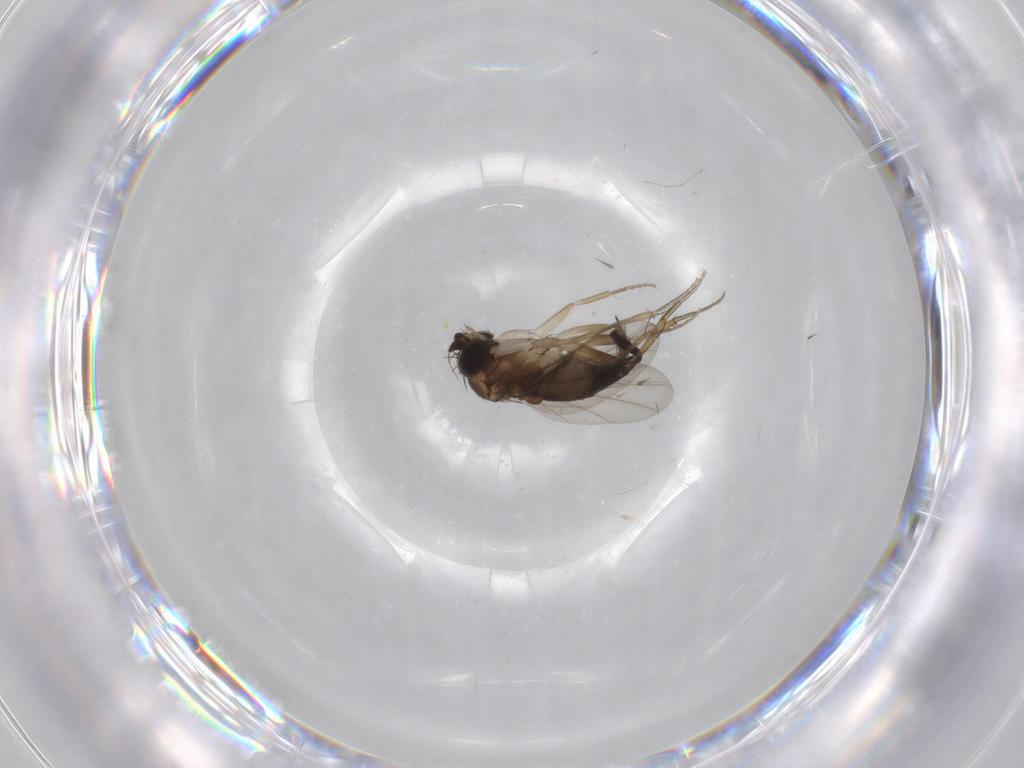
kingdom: Animalia
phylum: Arthropoda
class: Insecta
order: Diptera
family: Phoridae
